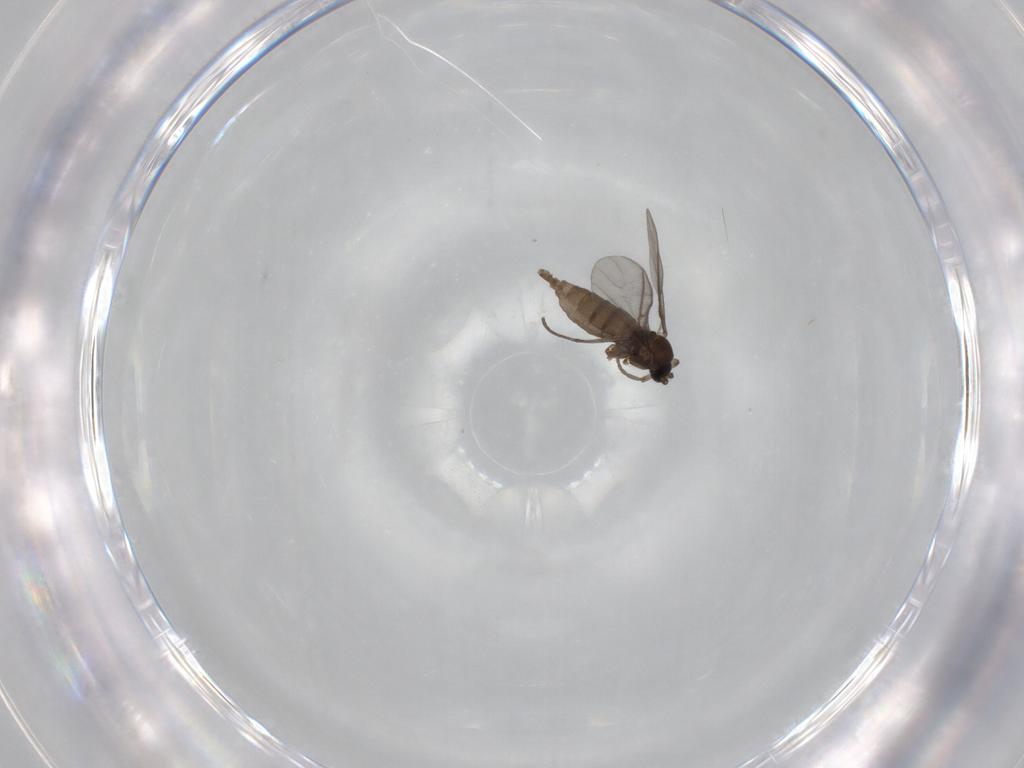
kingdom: Animalia
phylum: Arthropoda
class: Insecta
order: Diptera
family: Sciaridae
